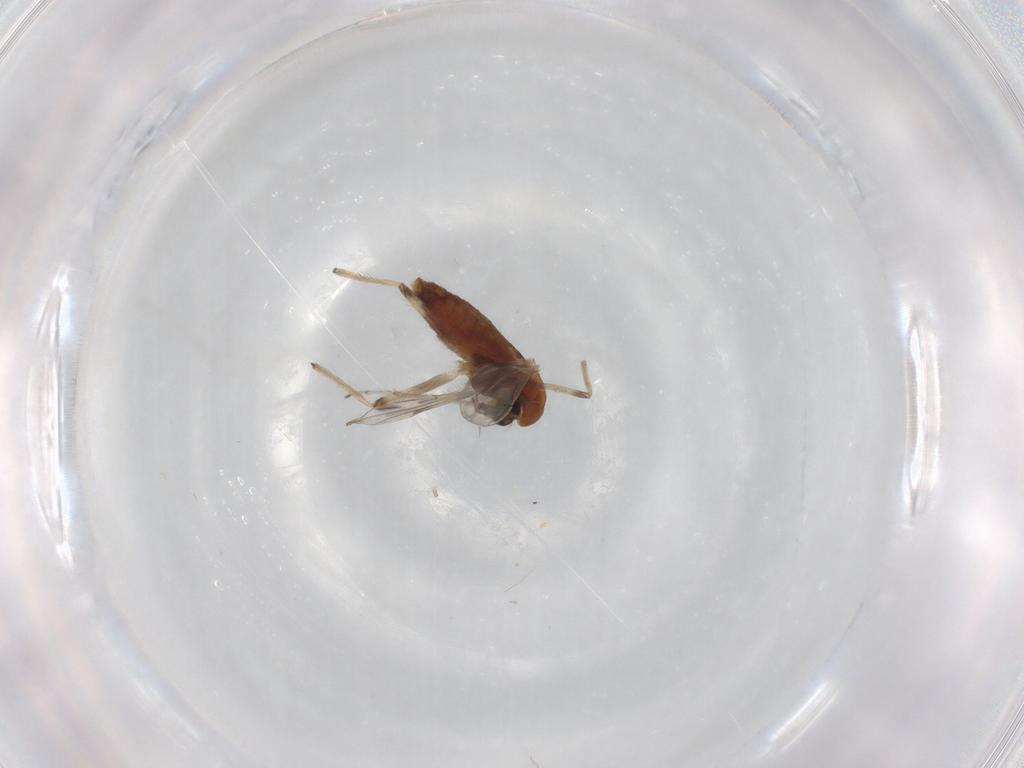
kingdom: Animalia
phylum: Arthropoda
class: Insecta
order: Diptera
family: Chironomidae
